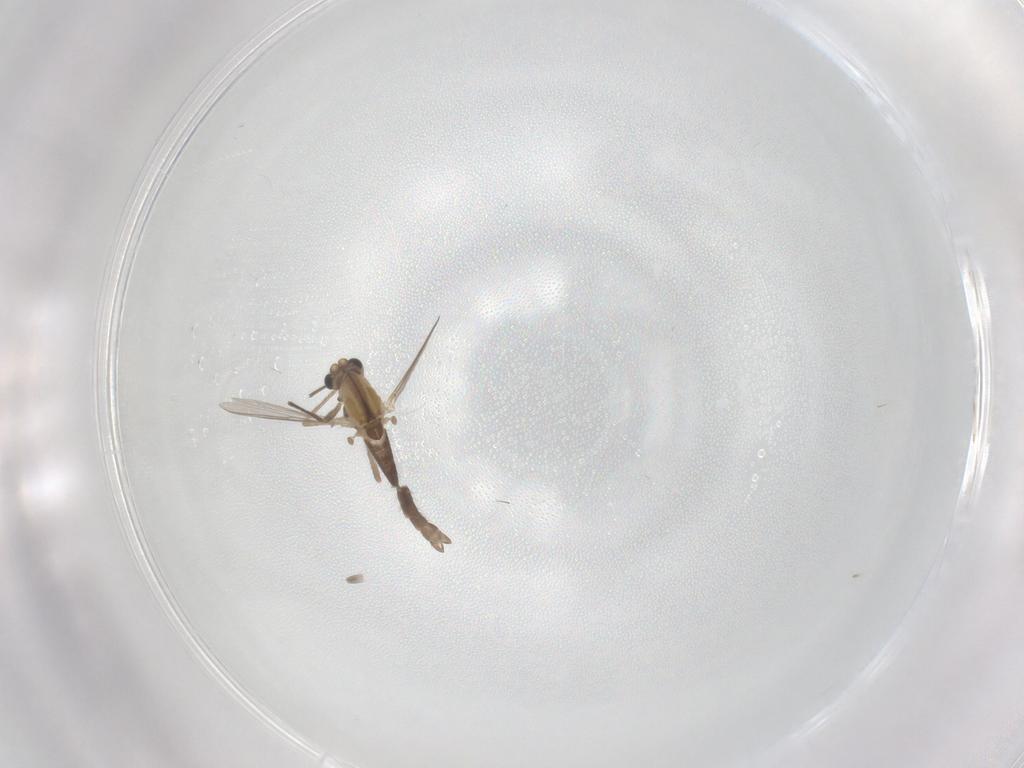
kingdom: Animalia
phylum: Arthropoda
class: Insecta
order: Diptera
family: Chironomidae
